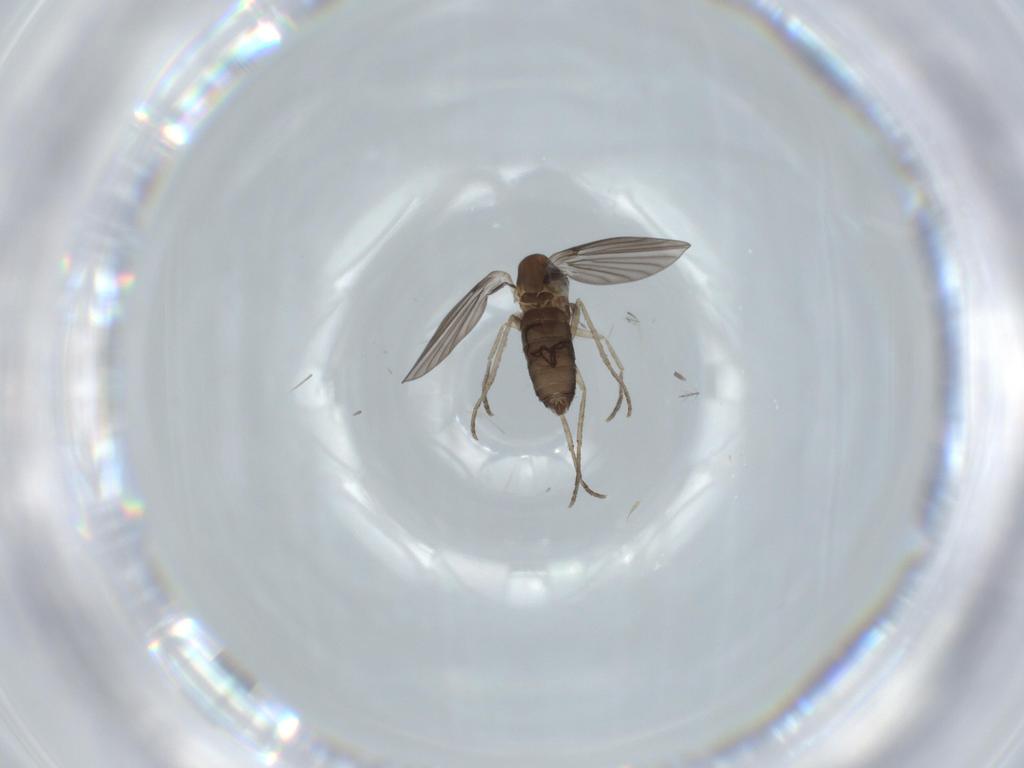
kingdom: Animalia
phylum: Arthropoda
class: Insecta
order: Diptera
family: Psychodidae
